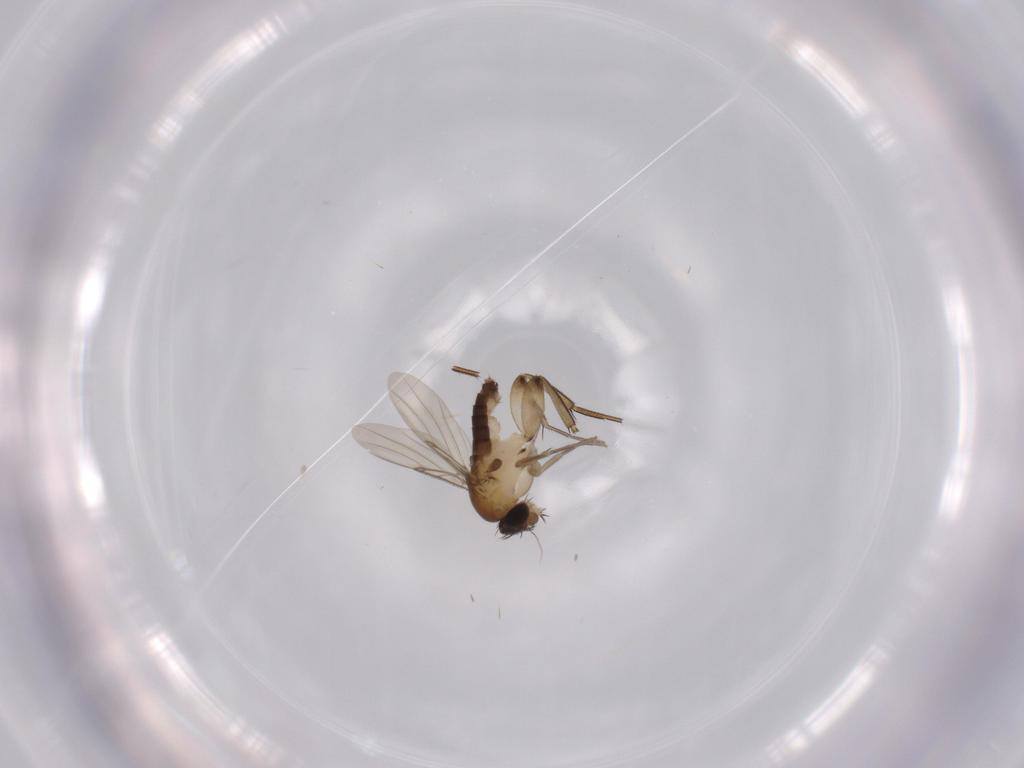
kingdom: Animalia
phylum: Arthropoda
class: Insecta
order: Diptera
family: Phoridae
